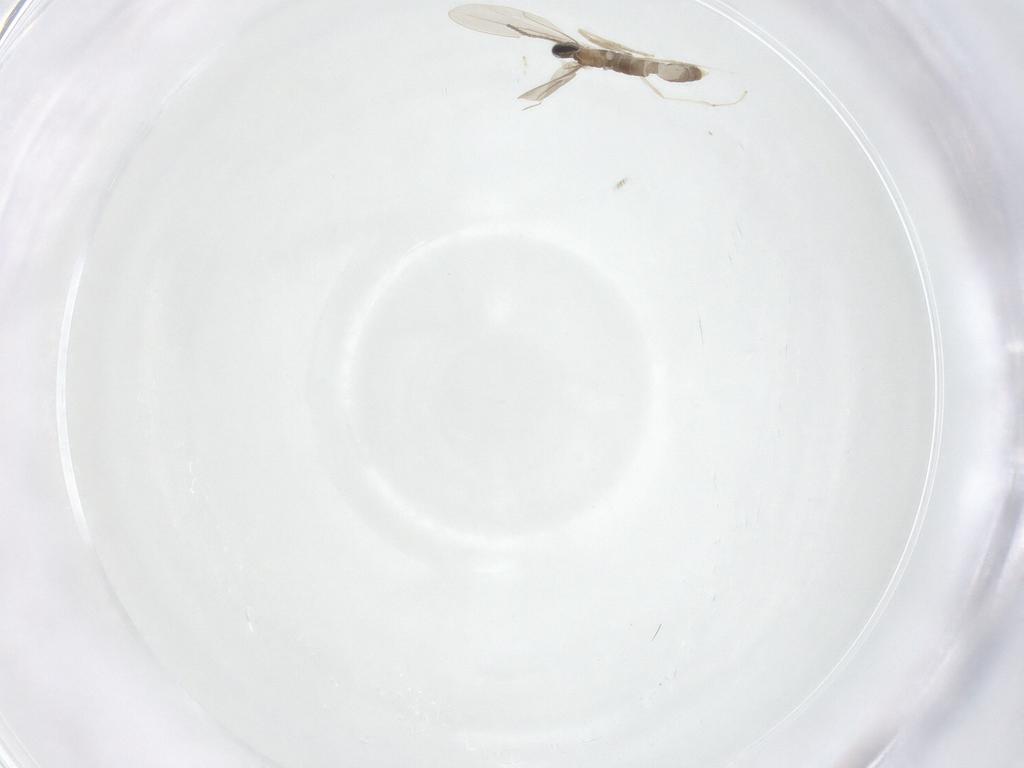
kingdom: Animalia
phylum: Arthropoda
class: Insecta
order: Diptera
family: Cecidomyiidae
